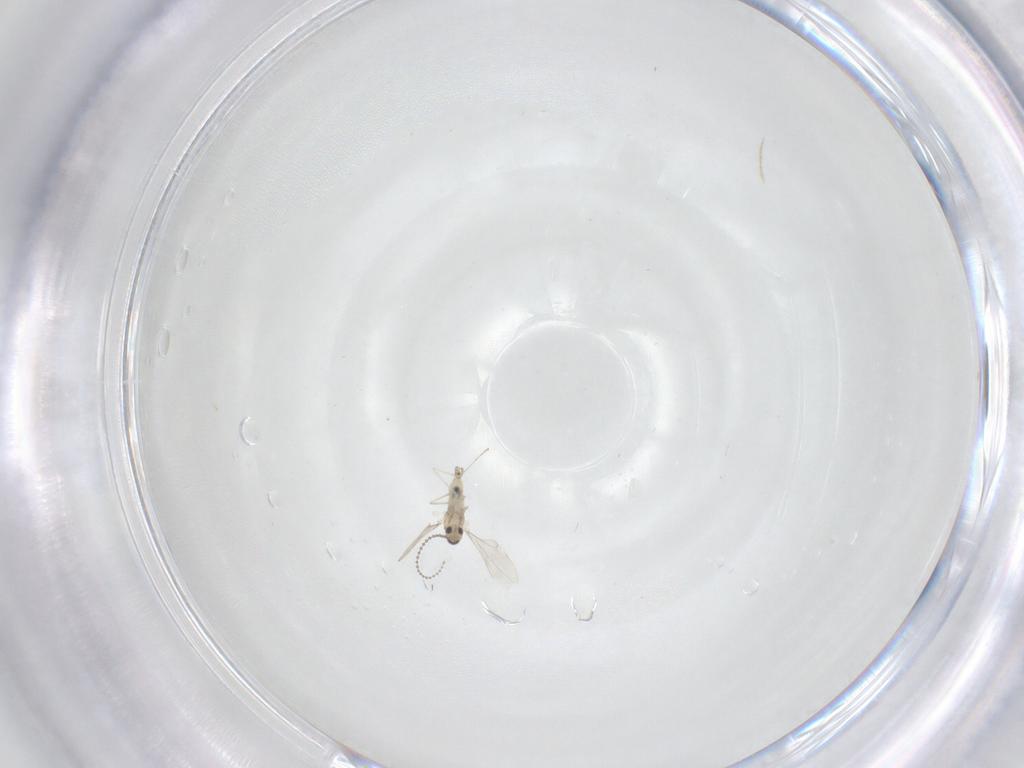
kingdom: Animalia
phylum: Arthropoda
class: Insecta
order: Diptera
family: Cecidomyiidae
